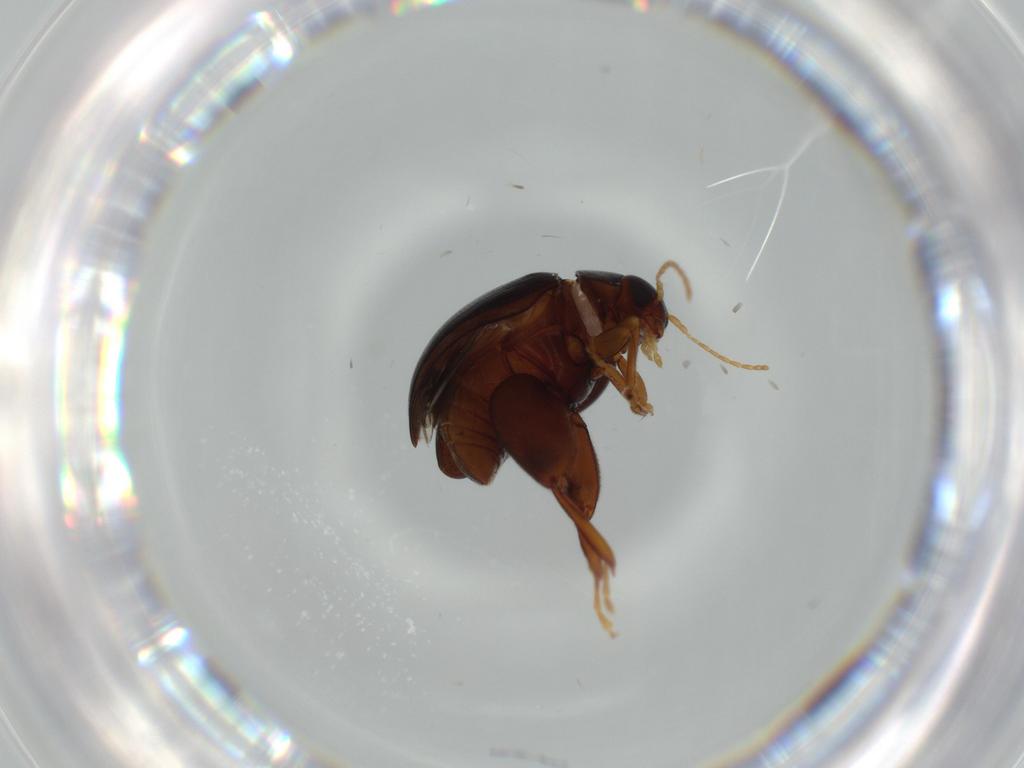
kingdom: Animalia
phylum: Arthropoda
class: Insecta
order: Coleoptera
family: Chrysomelidae
